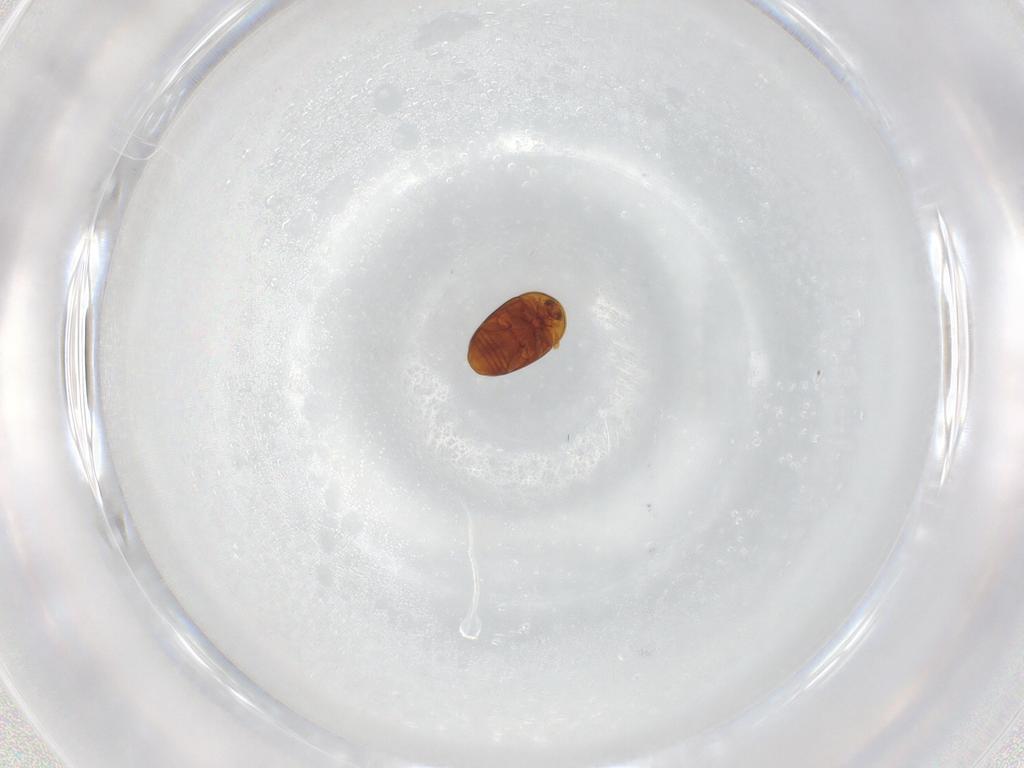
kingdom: Animalia
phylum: Arthropoda
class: Insecta
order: Coleoptera
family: Corylophidae
